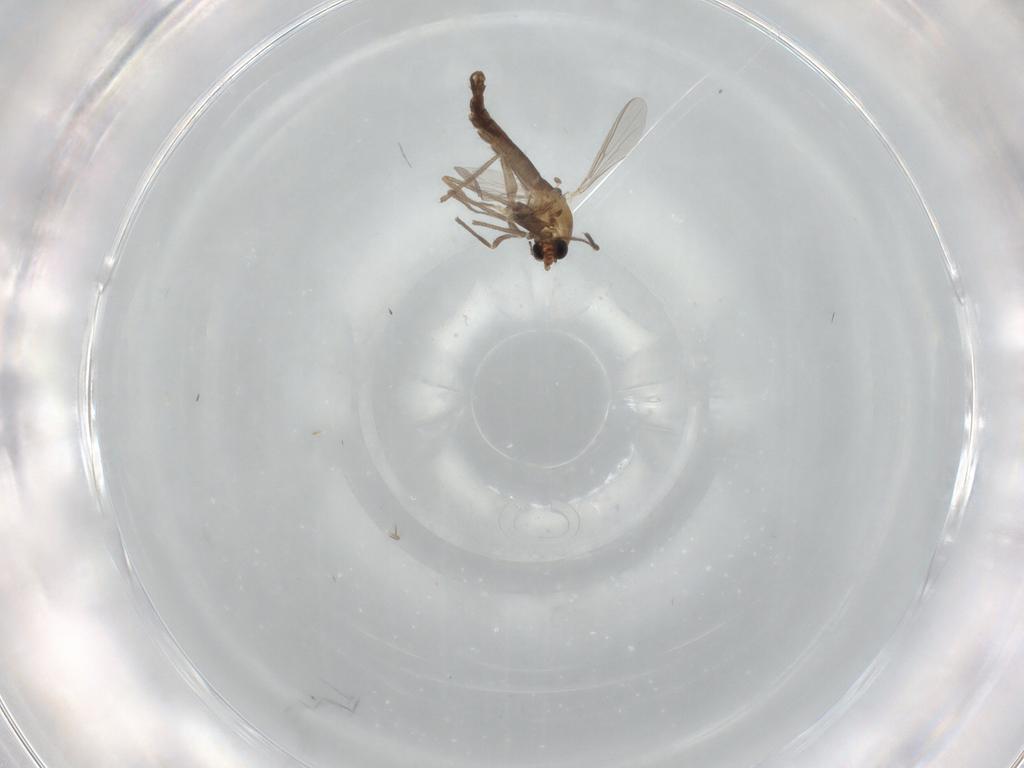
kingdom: Animalia
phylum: Arthropoda
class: Insecta
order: Diptera
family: Chironomidae
